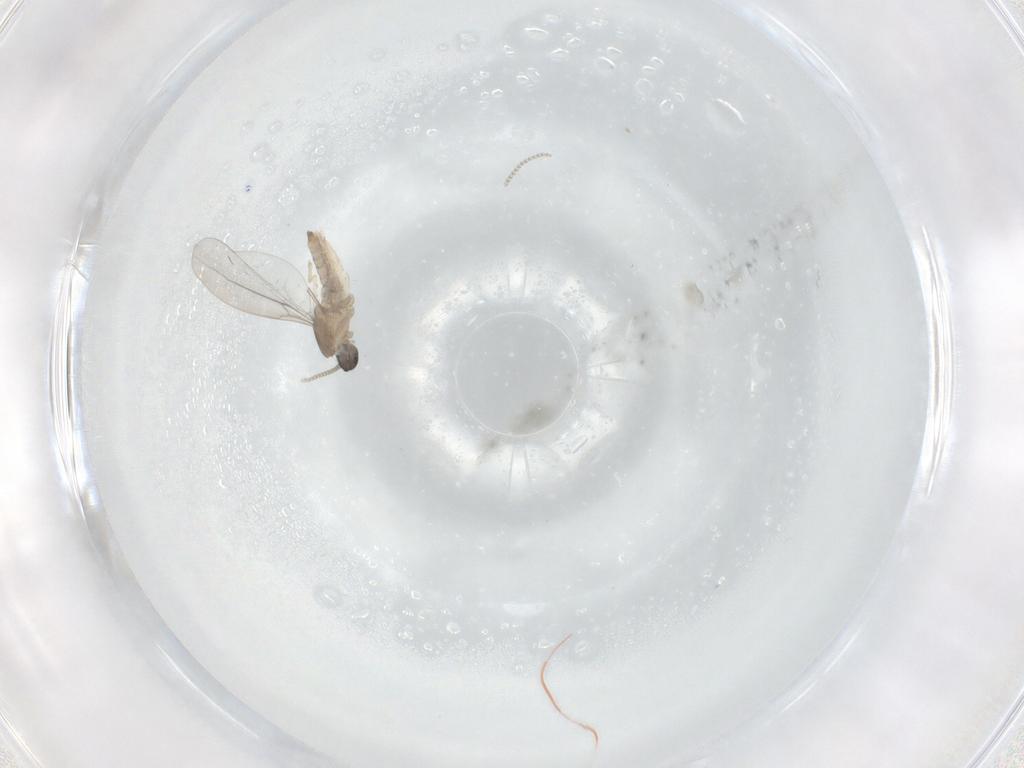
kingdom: Animalia
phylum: Arthropoda
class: Insecta
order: Diptera
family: Cecidomyiidae
